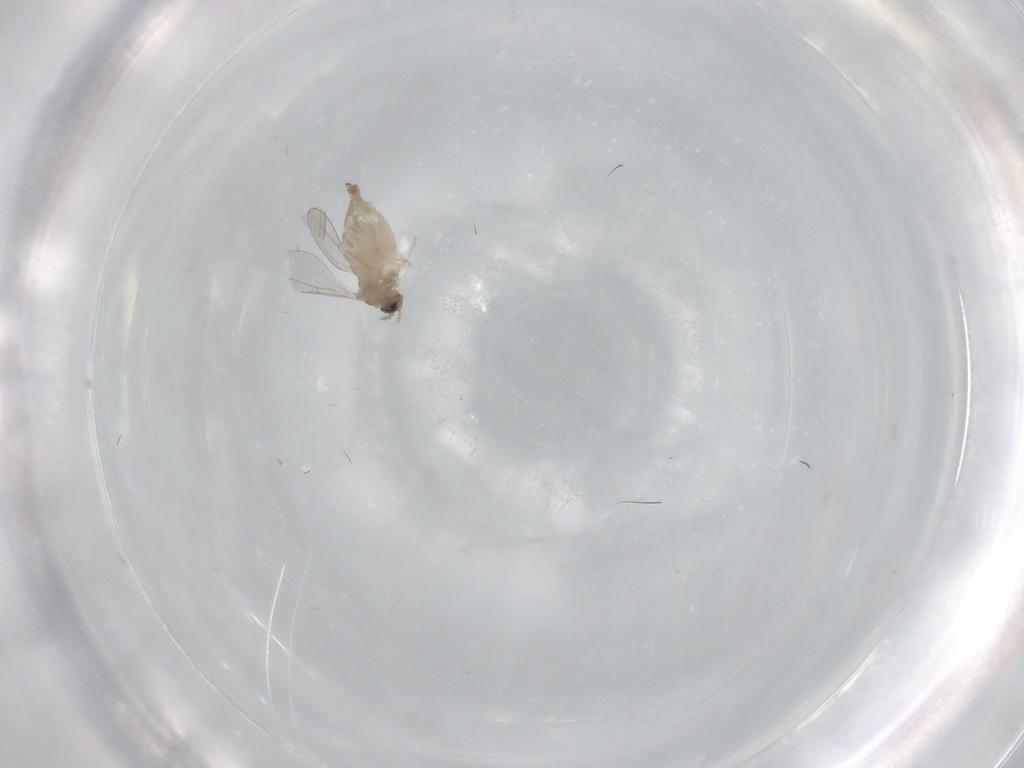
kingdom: Animalia
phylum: Arthropoda
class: Insecta
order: Diptera
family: Cecidomyiidae
